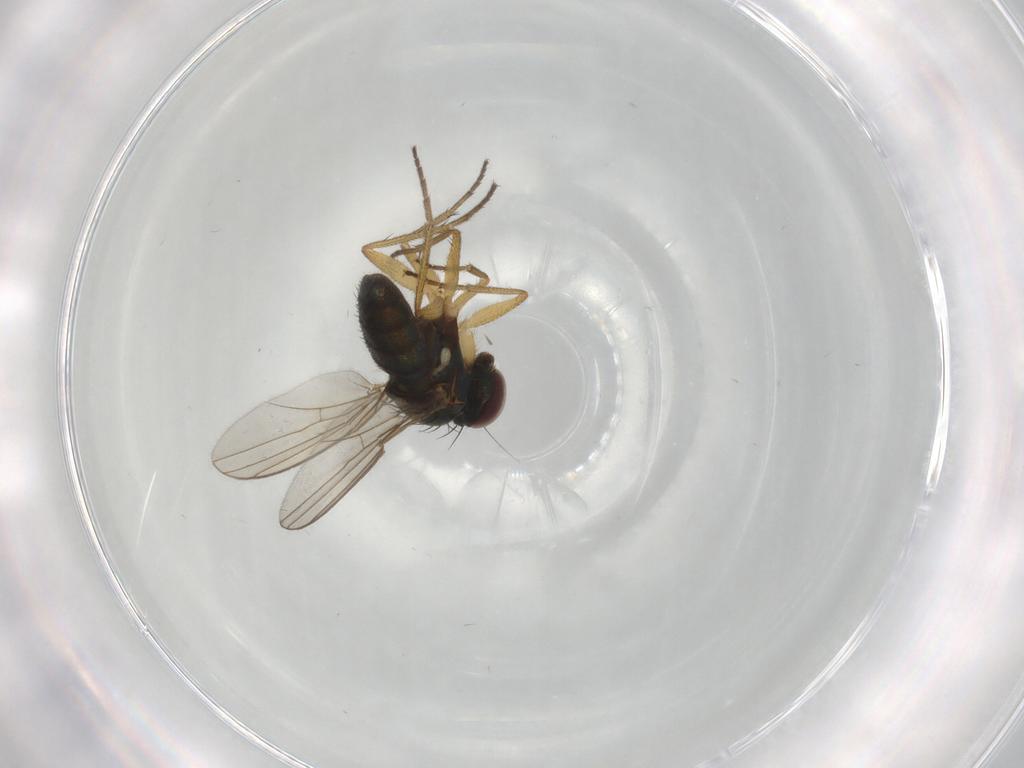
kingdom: Animalia
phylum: Arthropoda
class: Insecta
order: Diptera
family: Dolichopodidae
